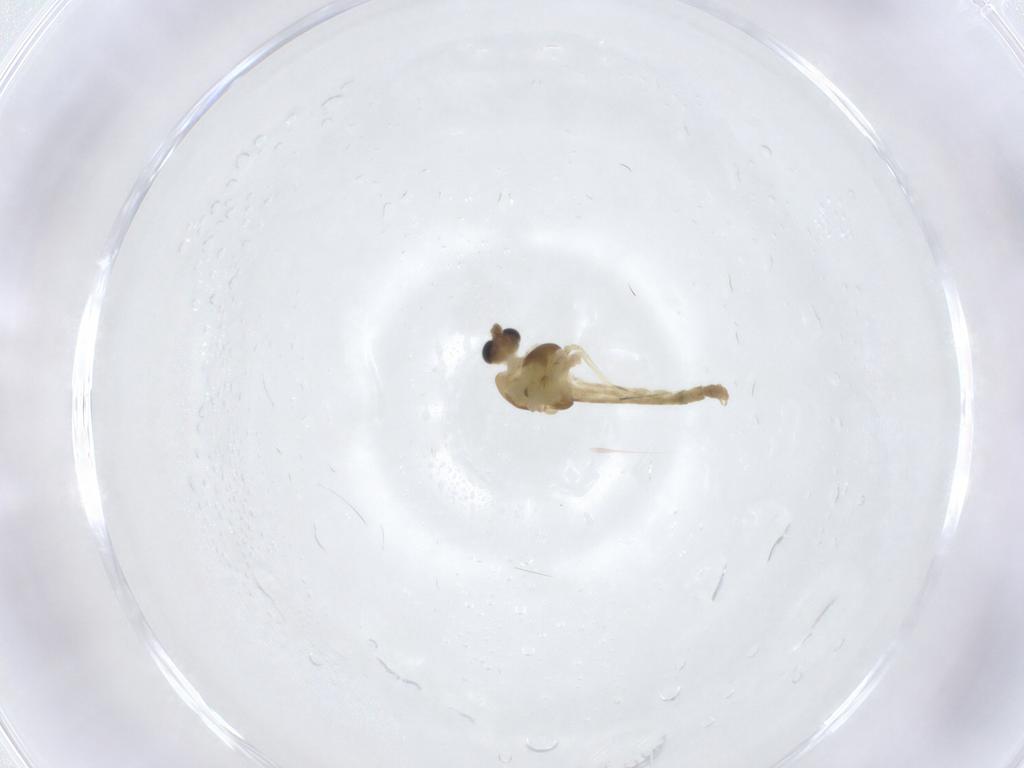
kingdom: Animalia
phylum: Arthropoda
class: Insecta
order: Diptera
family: Chironomidae
